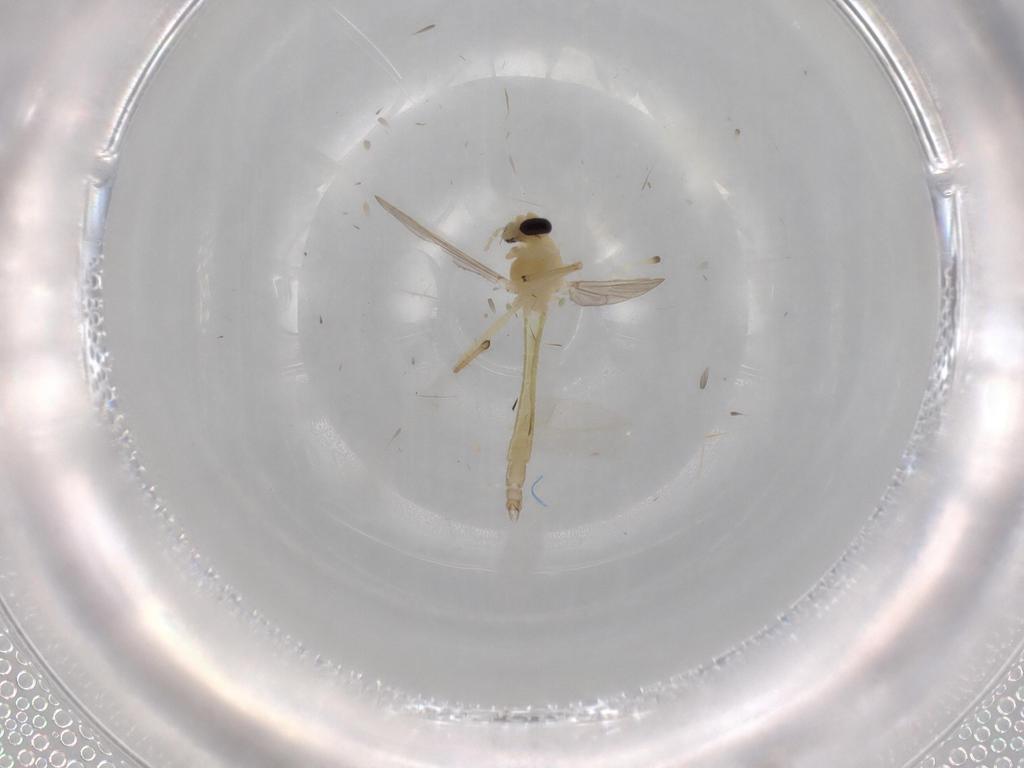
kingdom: Animalia
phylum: Arthropoda
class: Insecta
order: Diptera
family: Chironomidae
